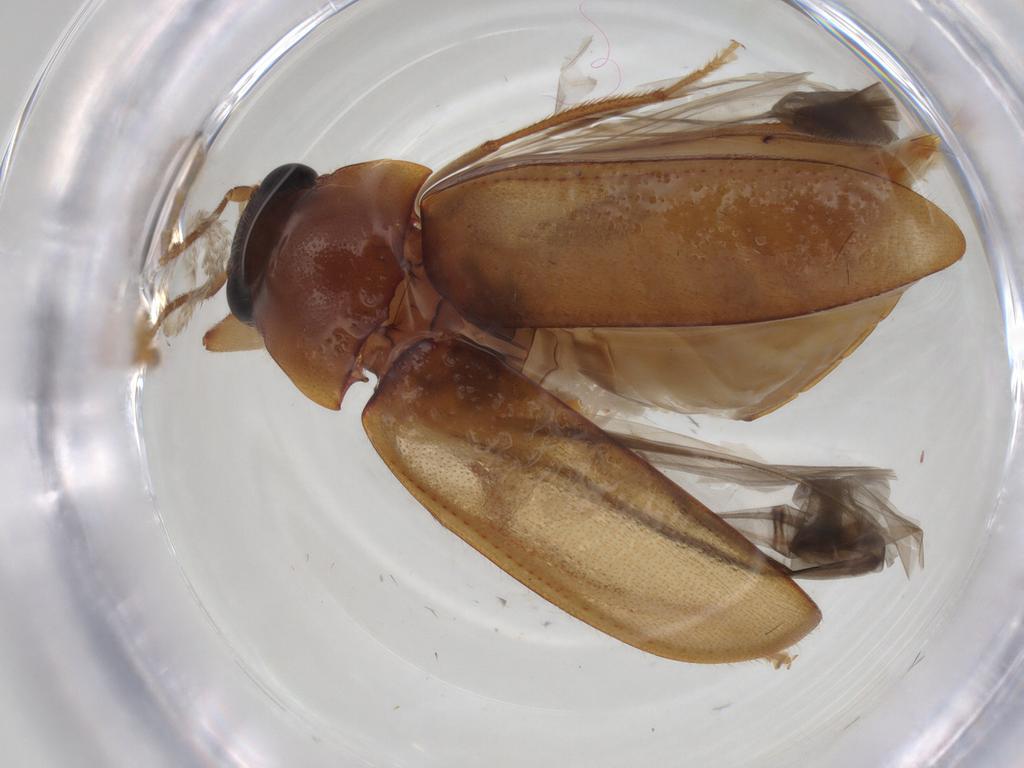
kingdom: Animalia
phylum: Arthropoda
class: Insecta
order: Coleoptera
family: Ptilodactylidae
